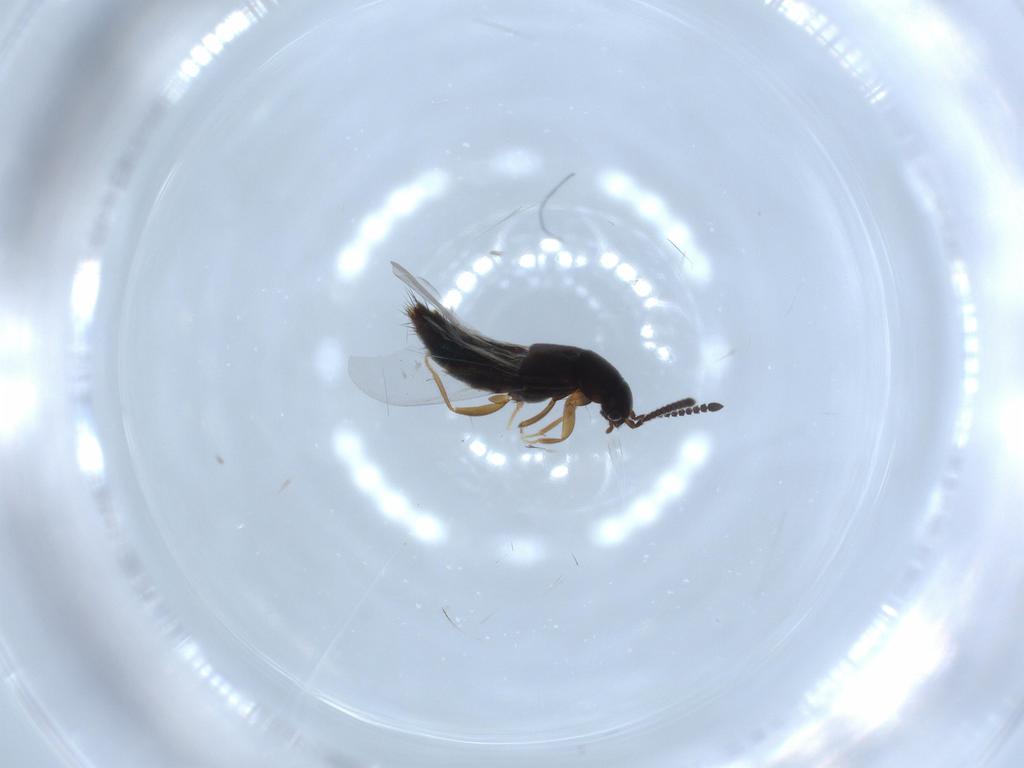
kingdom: Animalia
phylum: Arthropoda
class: Insecta
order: Coleoptera
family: Staphylinidae
